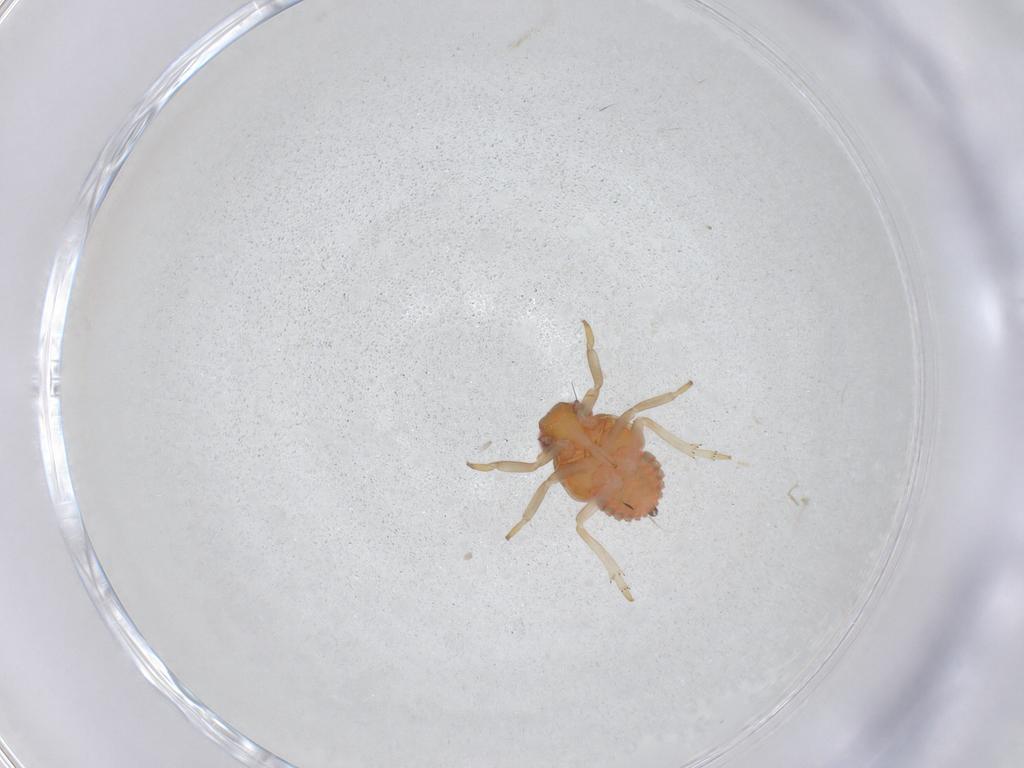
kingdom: Animalia
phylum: Arthropoda
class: Insecta
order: Hemiptera
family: Fulgoroidea_incertae_sedis
